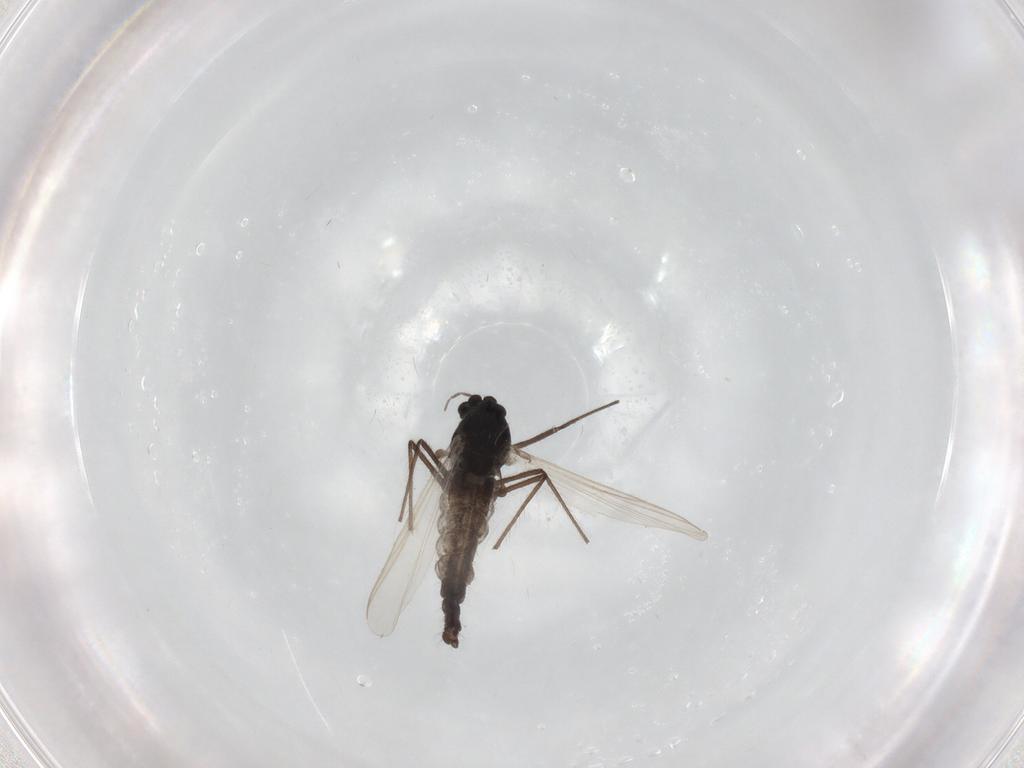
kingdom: Animalia
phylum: Arthropoda
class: Insecta
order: Diptera
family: Chironomidae
